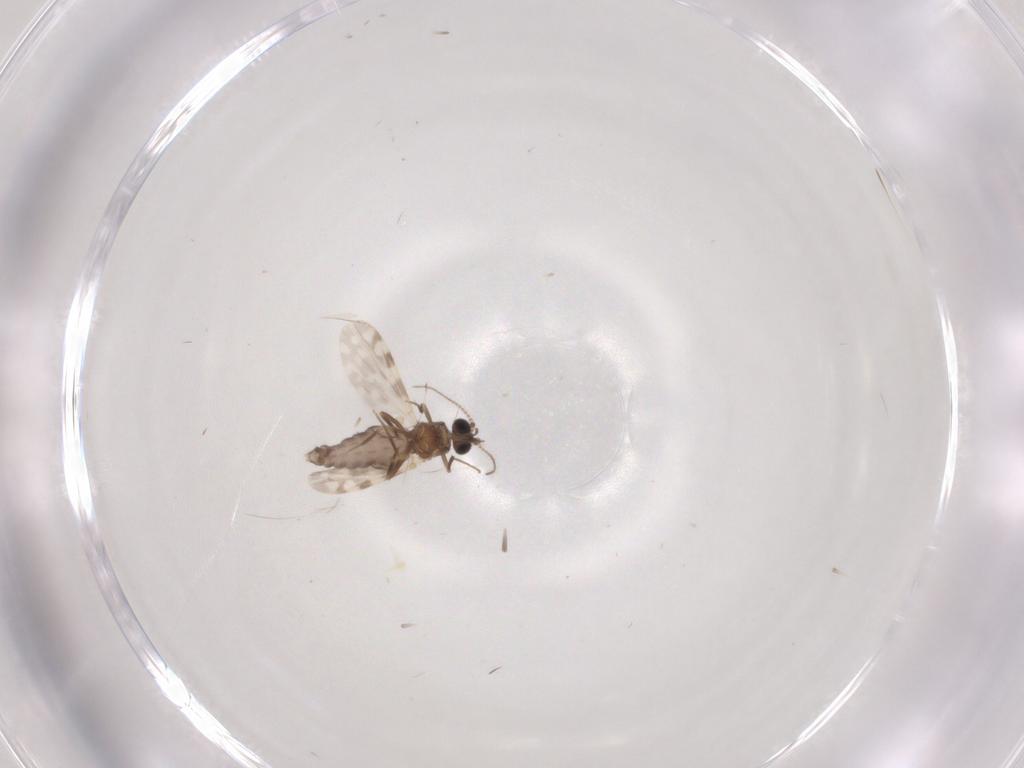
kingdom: Animalia
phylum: Arthropoda
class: Insecta
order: Diptera
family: Ceratopogonidae
